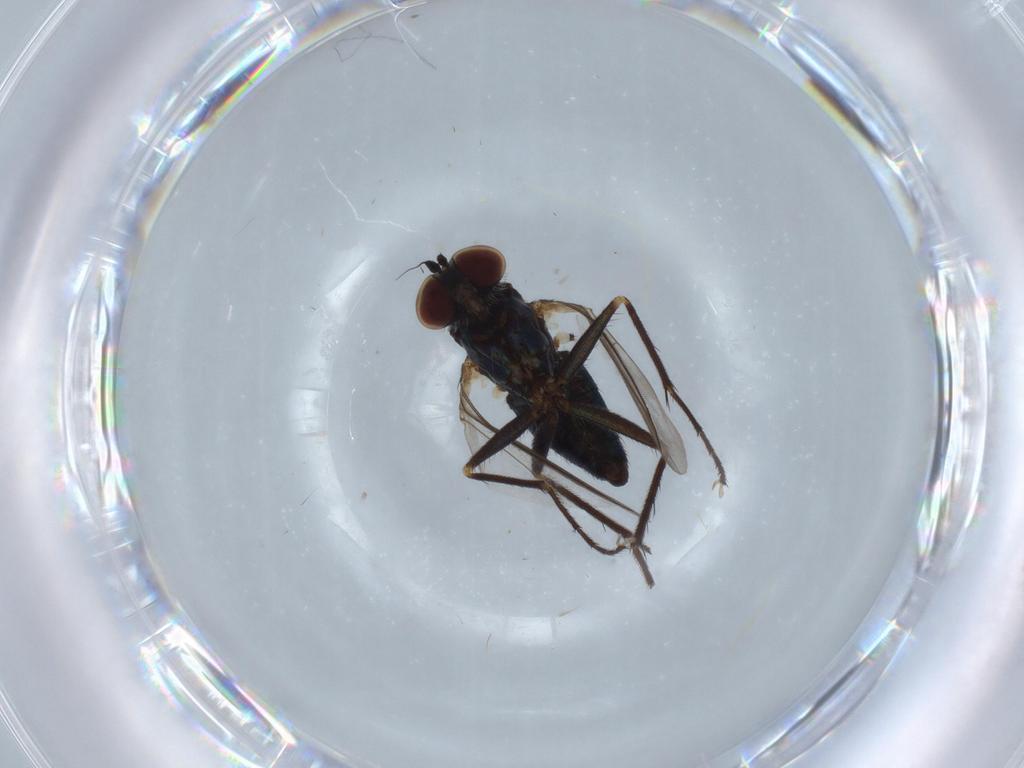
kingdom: Animalia
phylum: Arthropoda
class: Insecta
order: Diptera
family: Dolichopodidae
